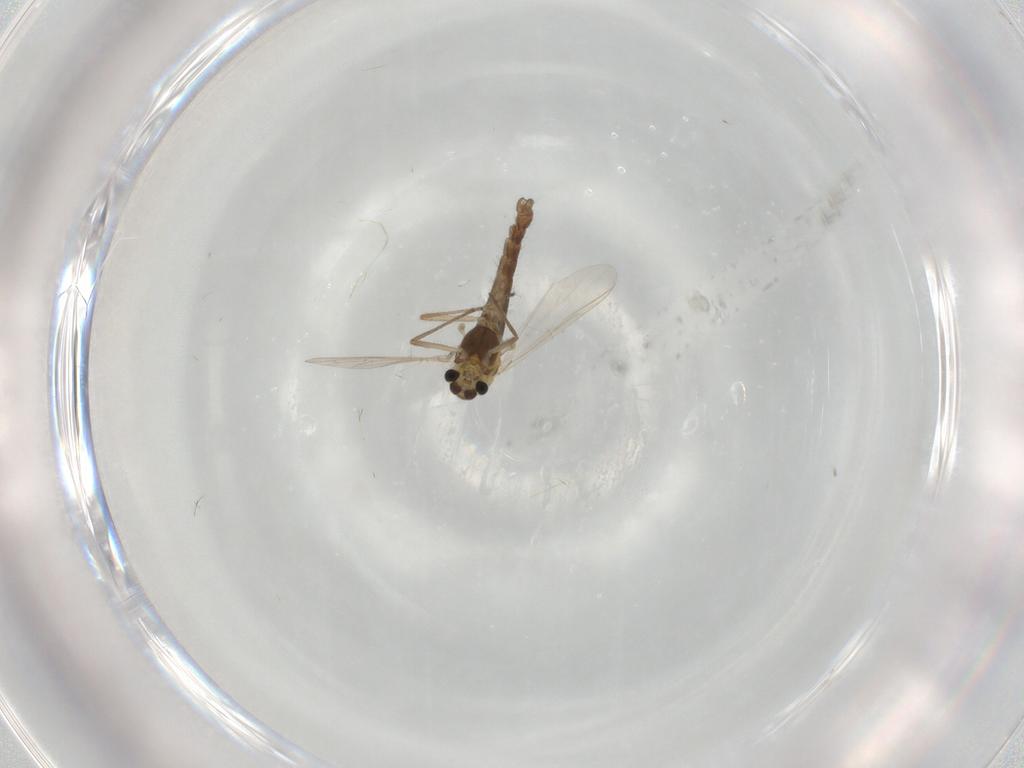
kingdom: Animalia
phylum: Arthropoda
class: Insecta
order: Diptera
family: Chironomidae
